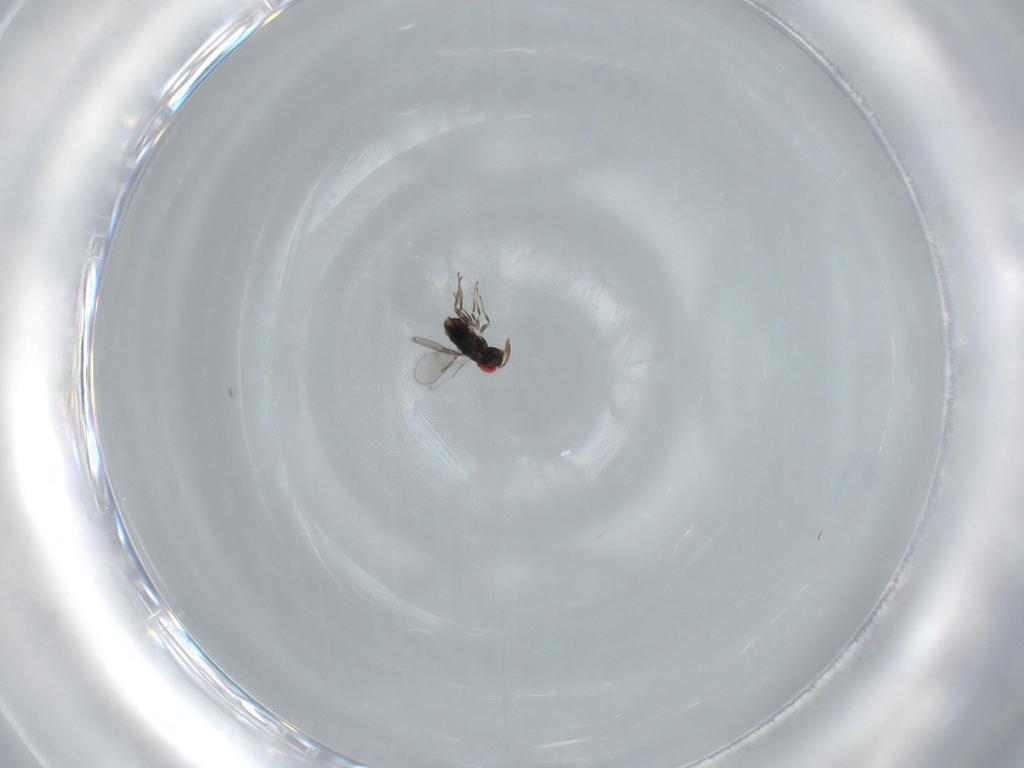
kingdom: Animalia
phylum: Arthropoda
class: Insecta
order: Hymenoptera
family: Azotidae
